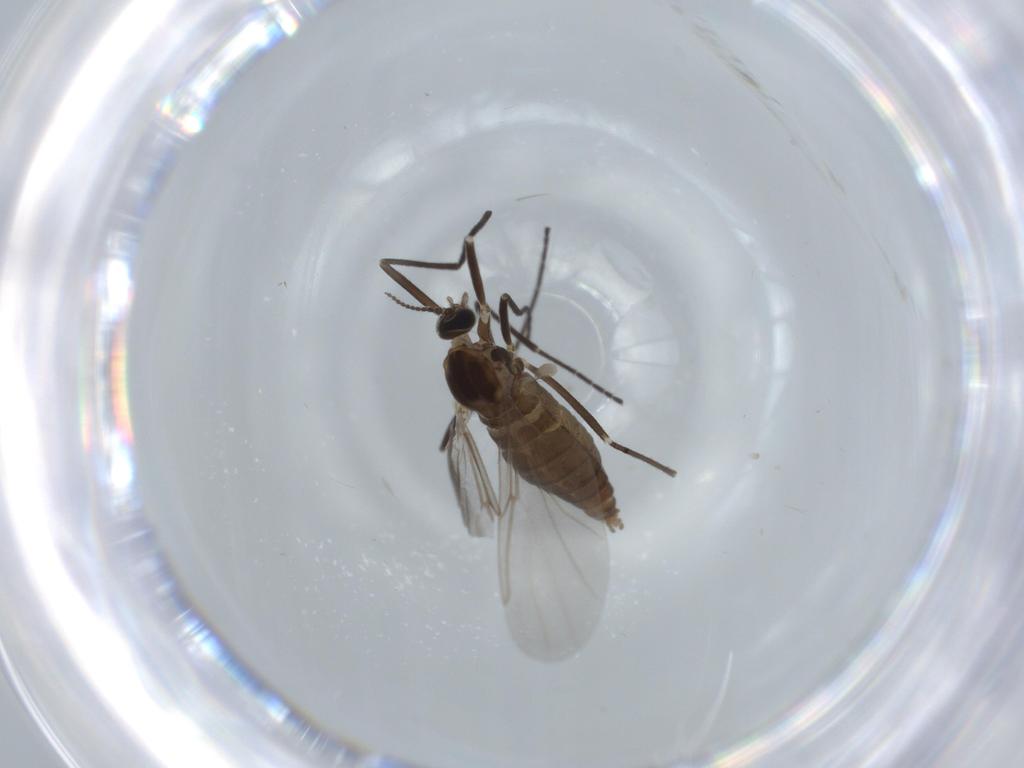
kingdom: Animalia
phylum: Arthropoda
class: Insecta
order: Diptera
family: Cecidomyiidae
